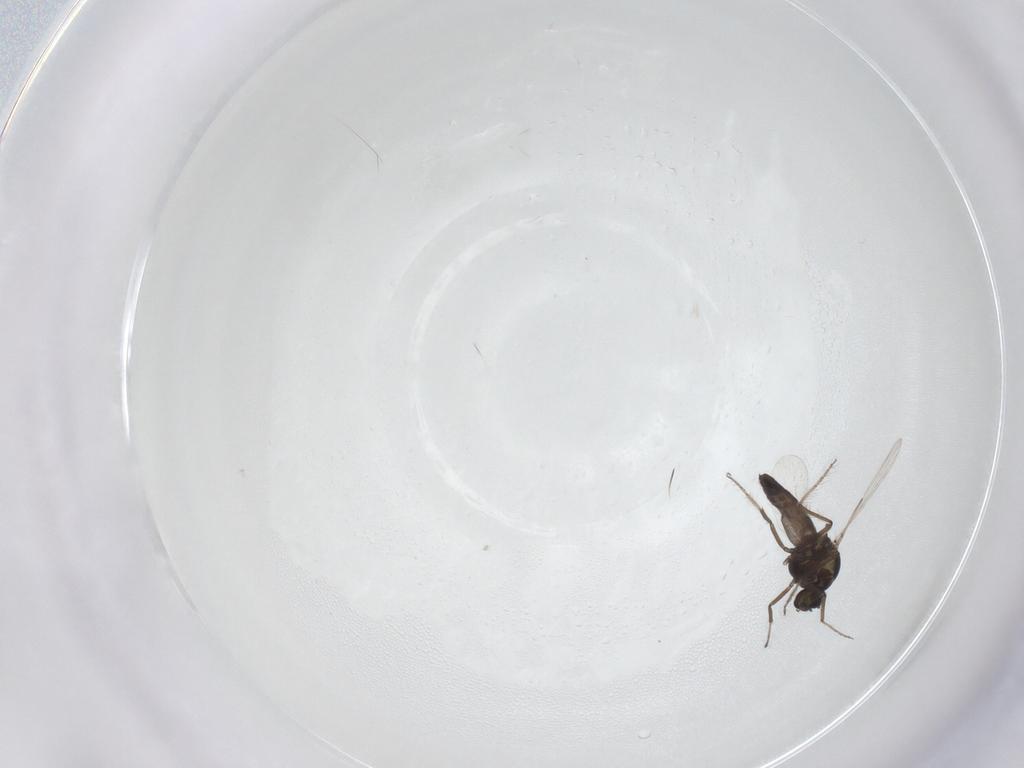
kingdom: Animalia
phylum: Arthropoda
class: Insecta
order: Diptera
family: Ceratopogonidae
